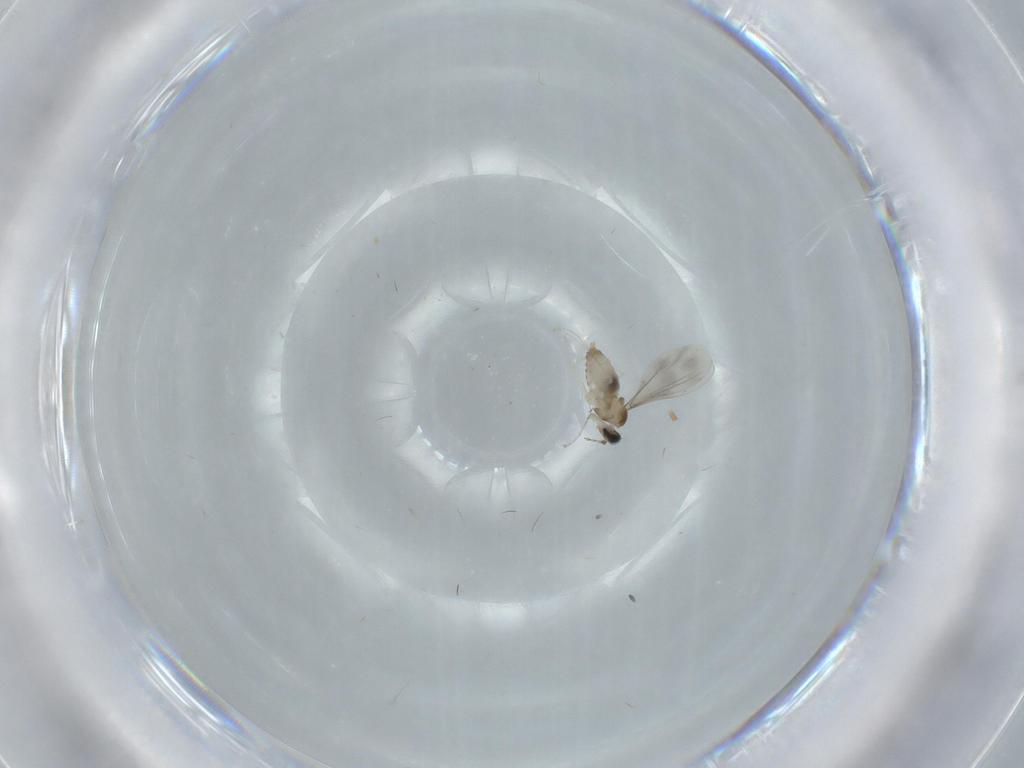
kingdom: Animalia
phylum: Arthropoda
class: Insecta
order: Diptera
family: Cecidomyiidae
